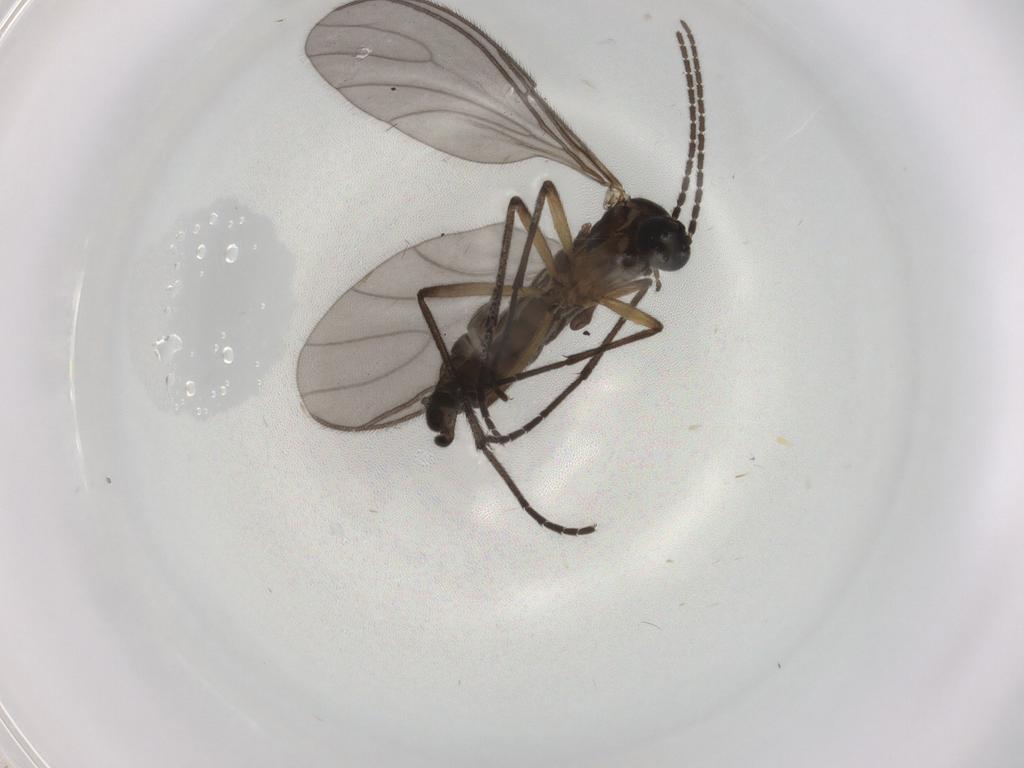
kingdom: Animalia
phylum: Arthropoda
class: Insecta
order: Diptera
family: Sciaridae
